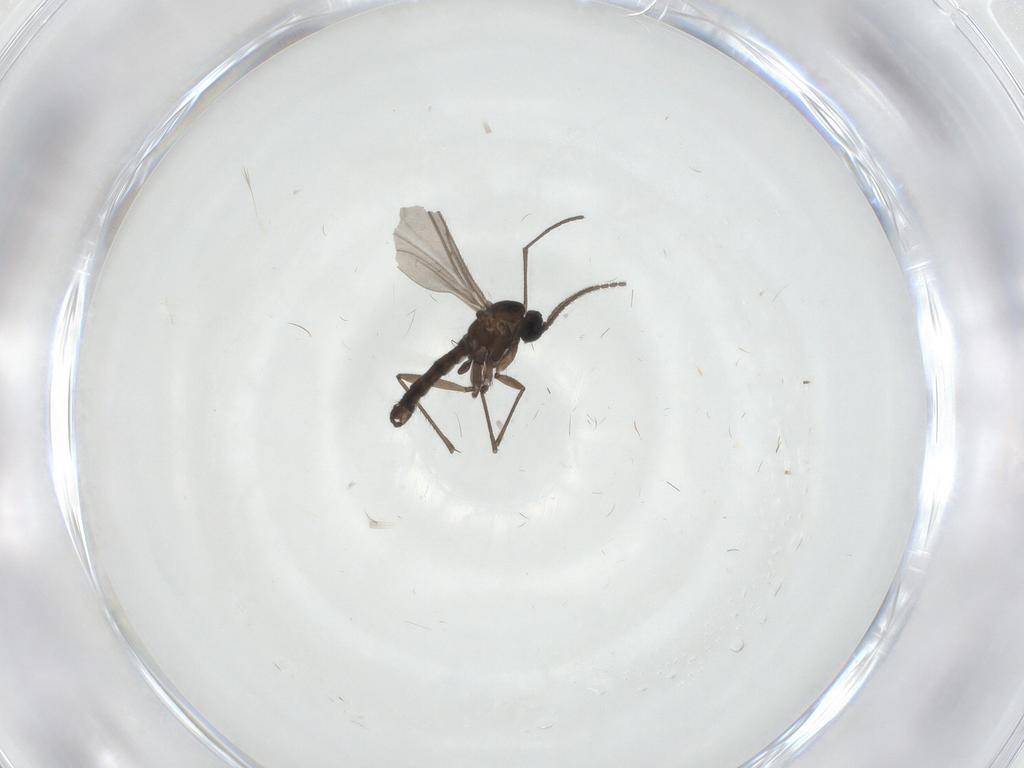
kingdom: Animalia
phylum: Arthropoda
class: Insecta
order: Diptera
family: Sciaridae
